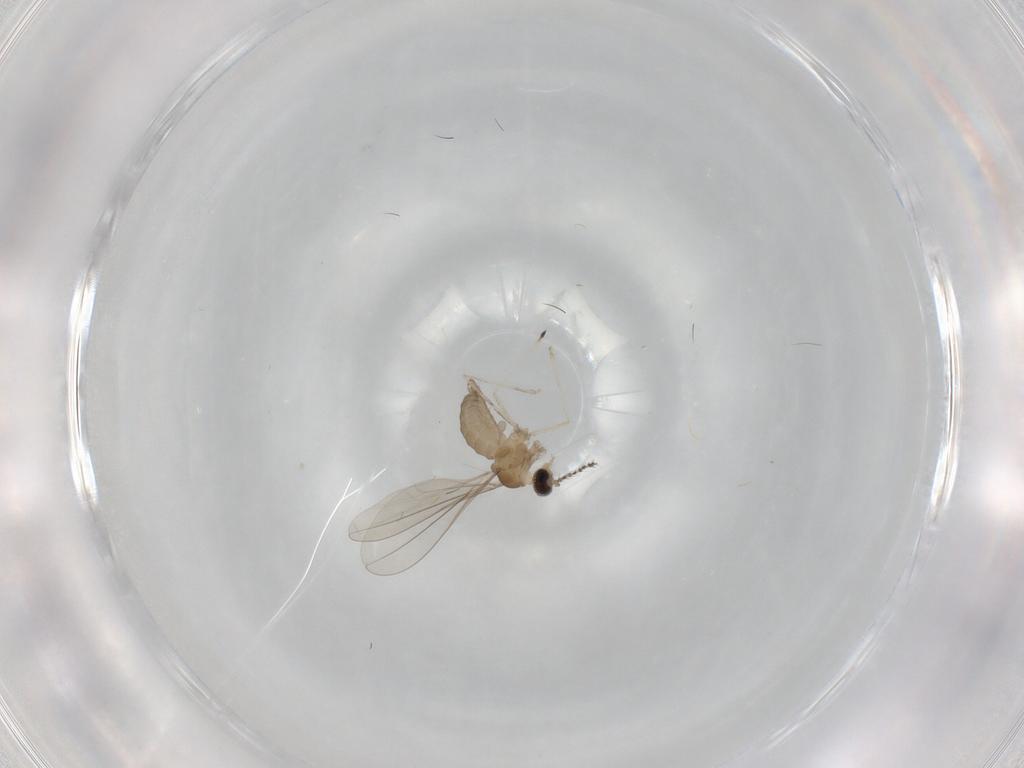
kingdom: Animalia
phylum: Arthropoda
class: Insecta
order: Diptera
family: Cecidomyiidae
